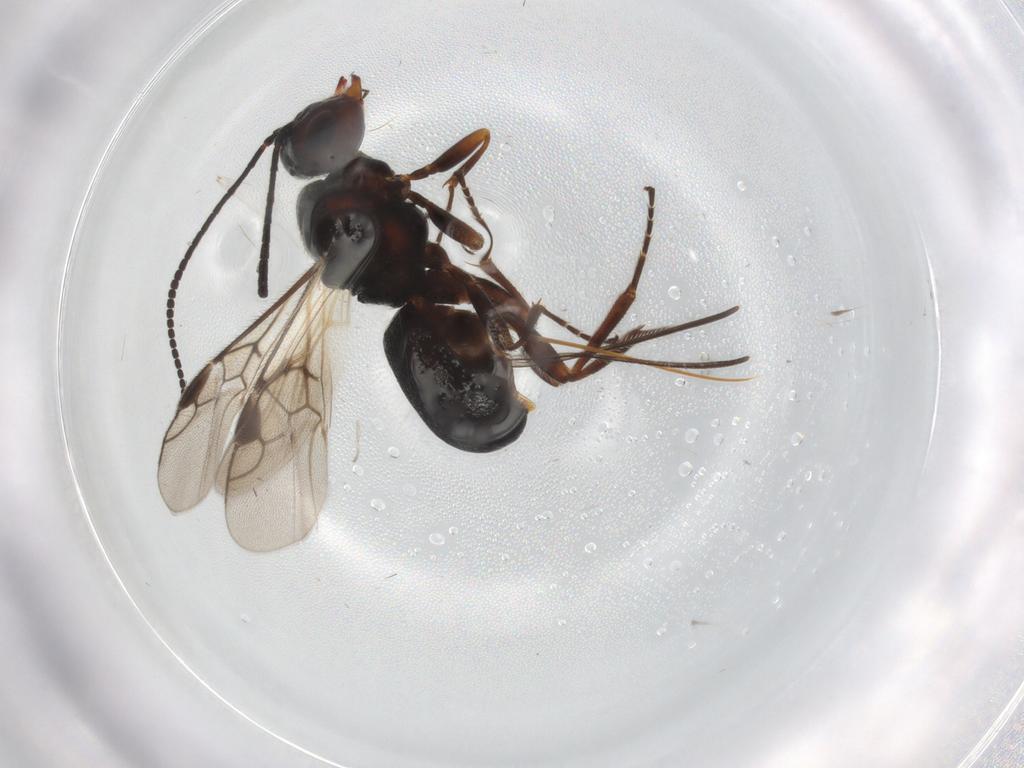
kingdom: Animalia
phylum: Arthropoda
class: Insecta
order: Hymenoptera
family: Braconidae
